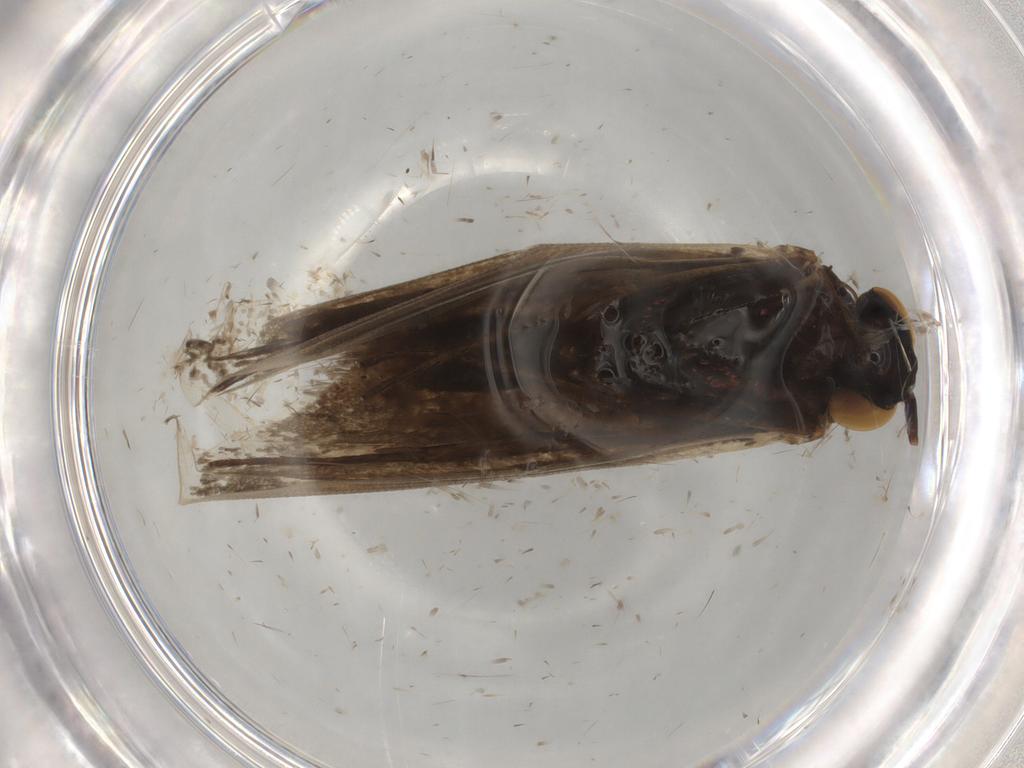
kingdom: Animalia
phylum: Arthropoda
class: Insecta
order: Lepidoptera
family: Adelidae
